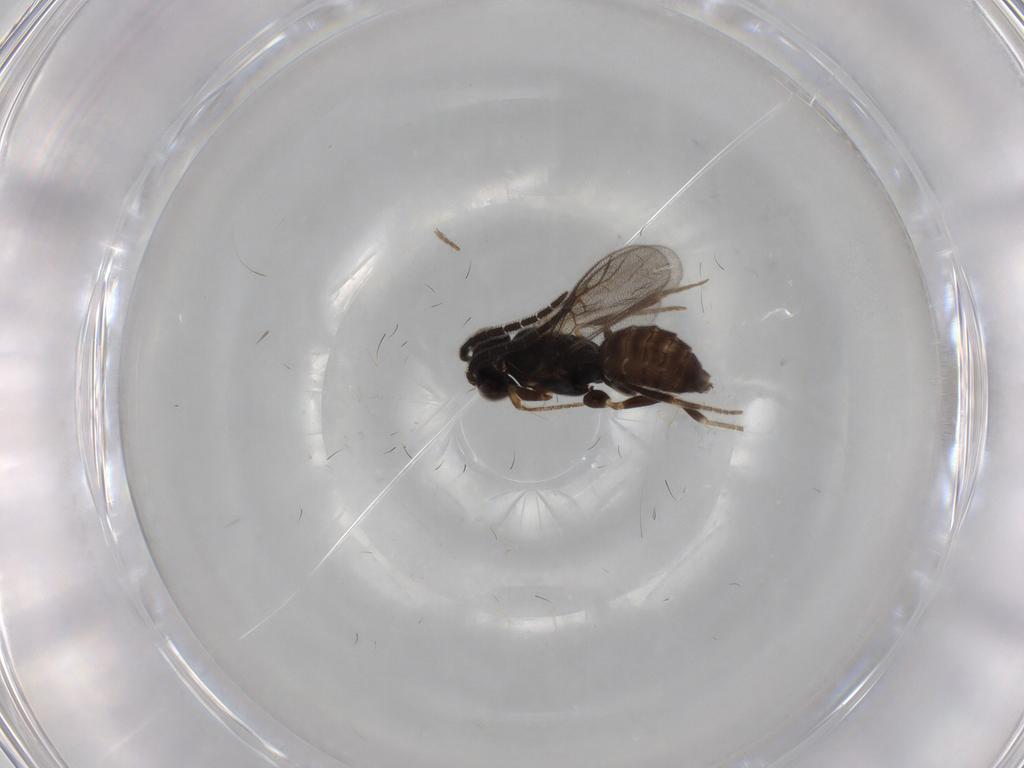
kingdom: Animalia
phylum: Arthropoda
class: Insecta
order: Hymenoptera
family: Dryinidae
